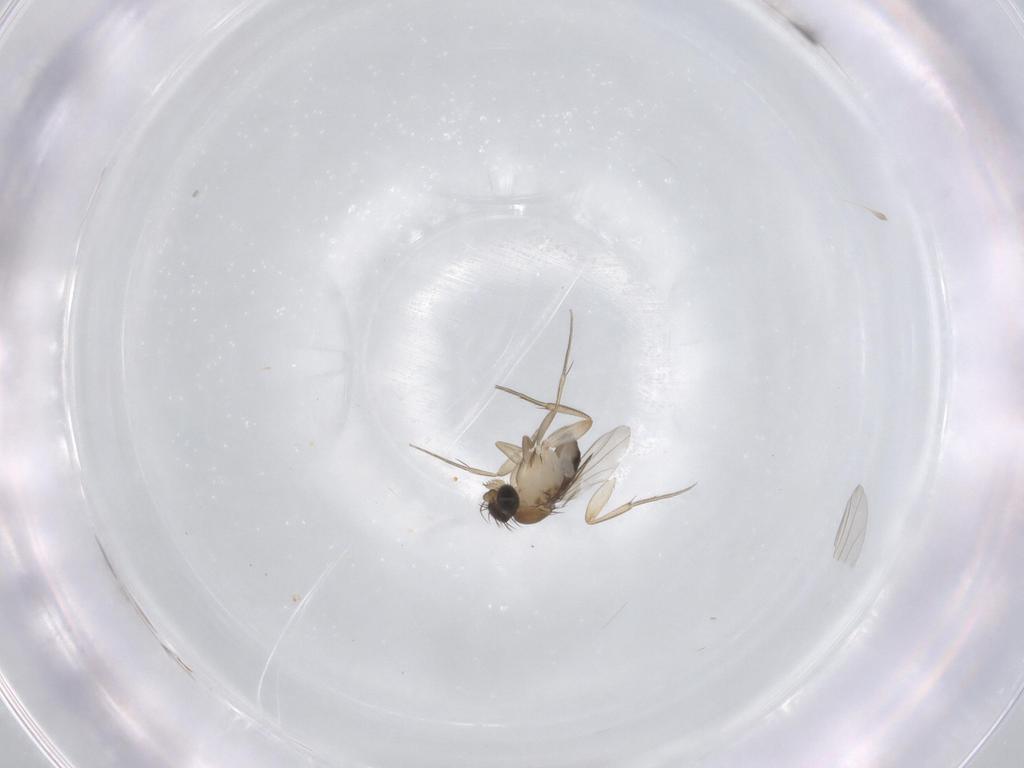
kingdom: Animalia
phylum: Arthropoda
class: Insecta
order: Diptera
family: Phoridae
